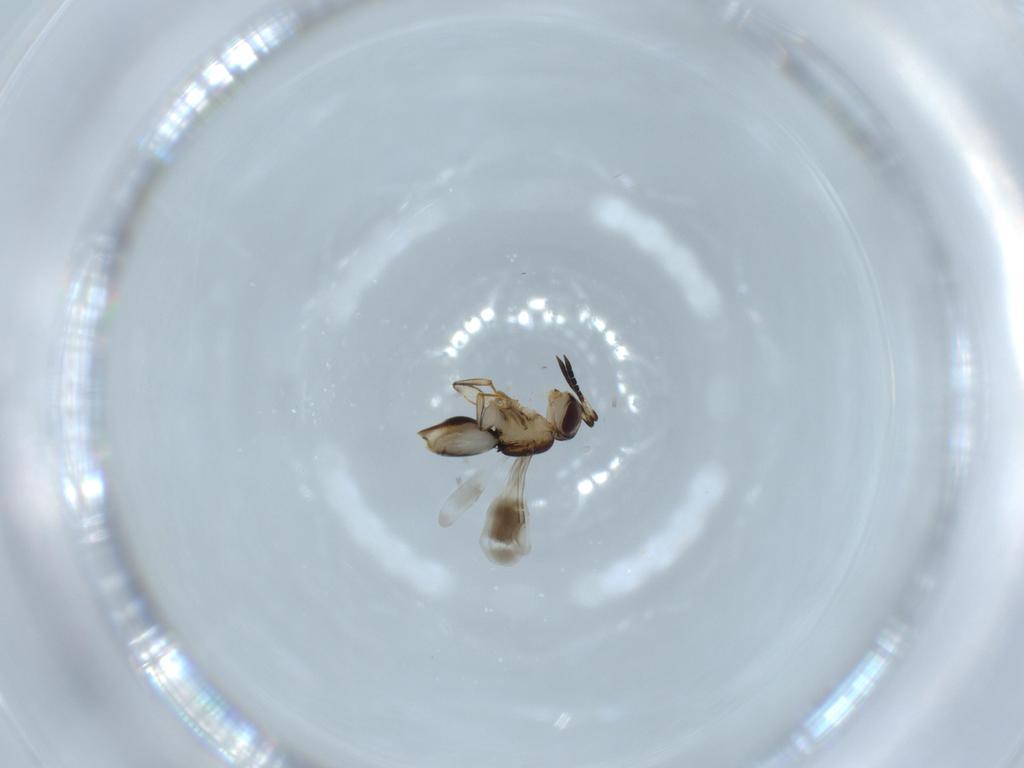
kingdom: Animalia
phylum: Arthropoda
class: Insecta
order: Hymenoptera
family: Formicidae
